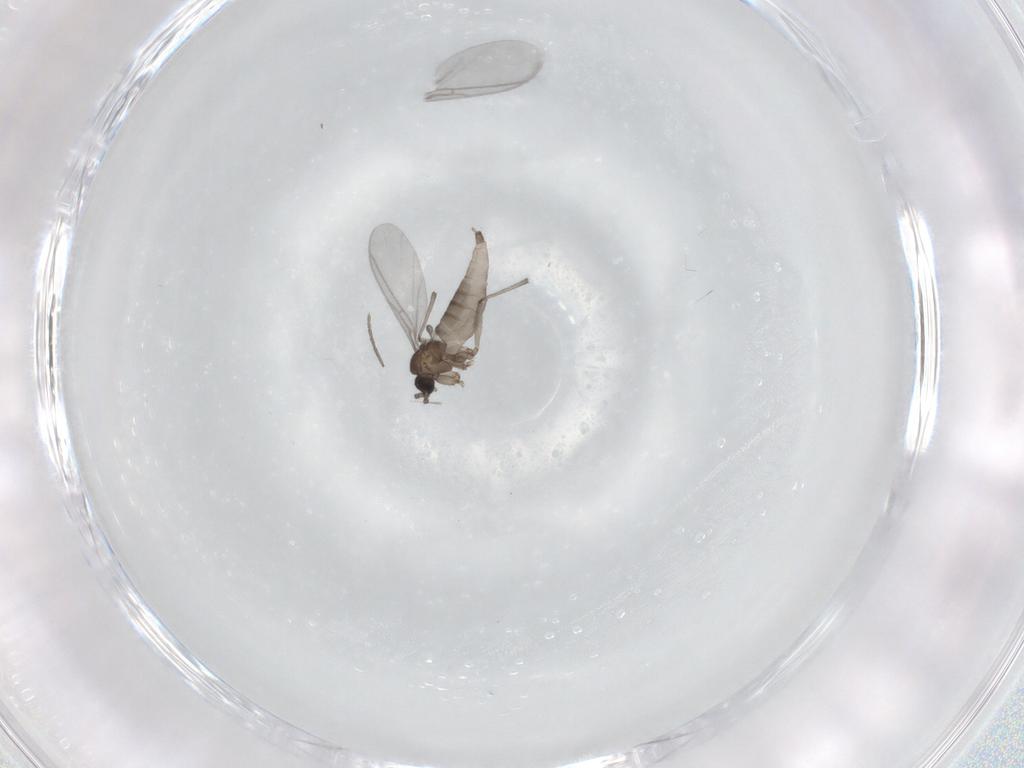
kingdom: Animalia
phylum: Arthropoda
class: Insecta
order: Diptera
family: Sciaridae
